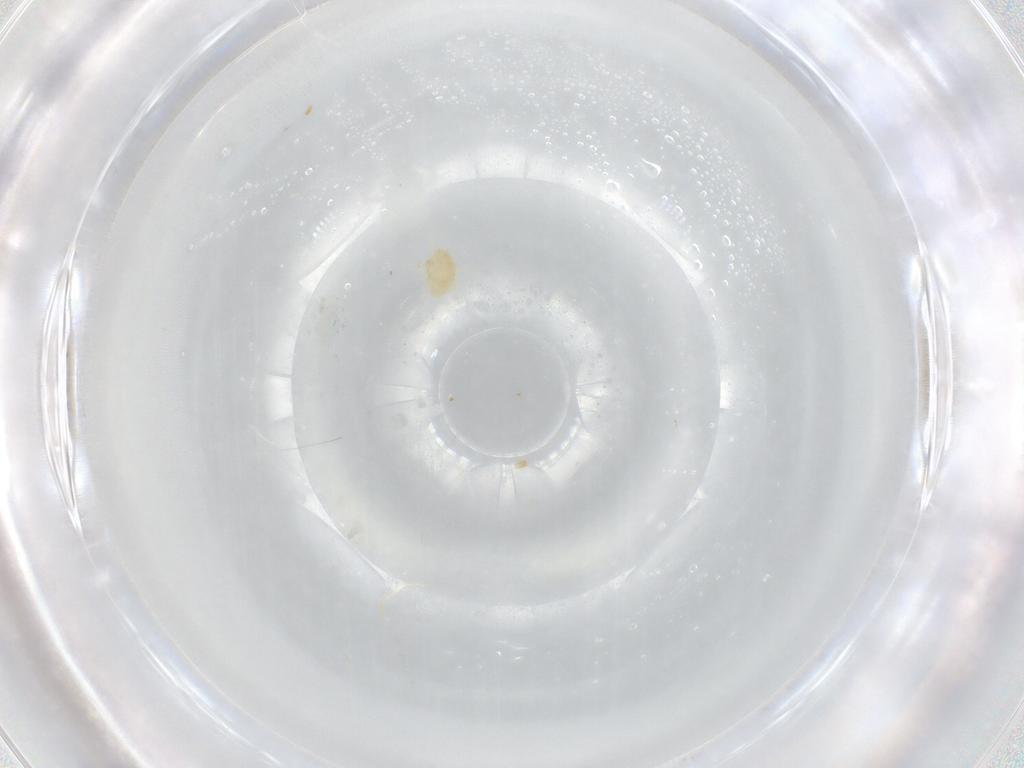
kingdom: Animalia
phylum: Arthropoda
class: Arachnida
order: Trombidiformes
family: Eupodidae
